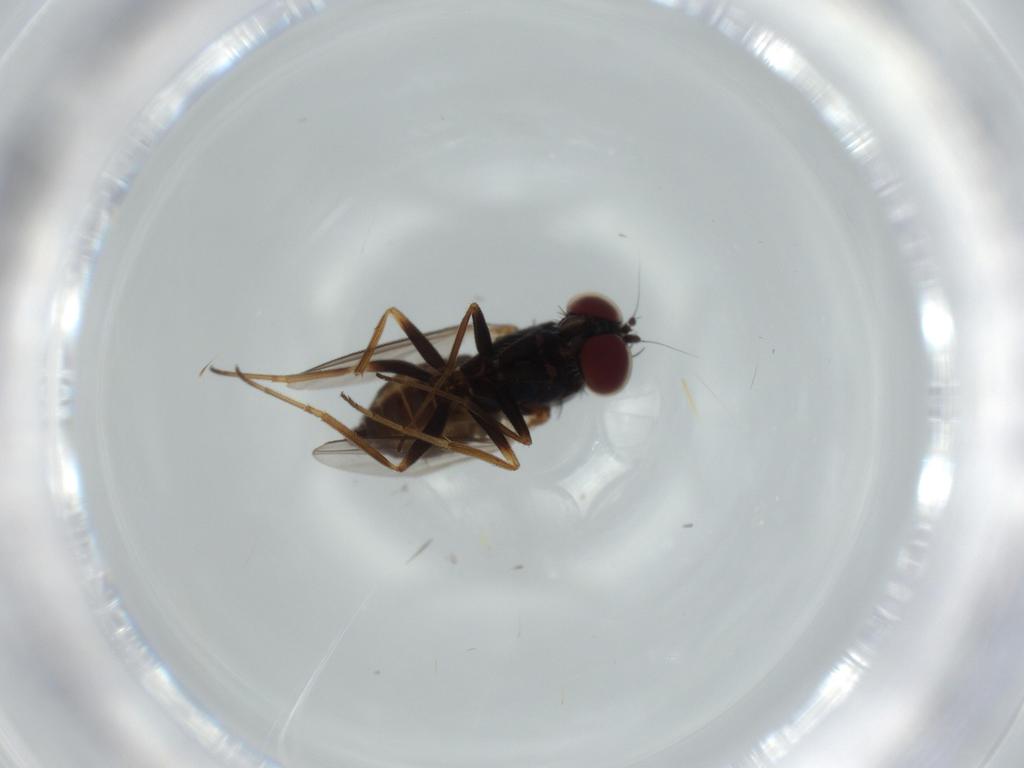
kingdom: Animalia
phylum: Arthropoda
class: Insecta
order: Diptera
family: Dolichopodidae
